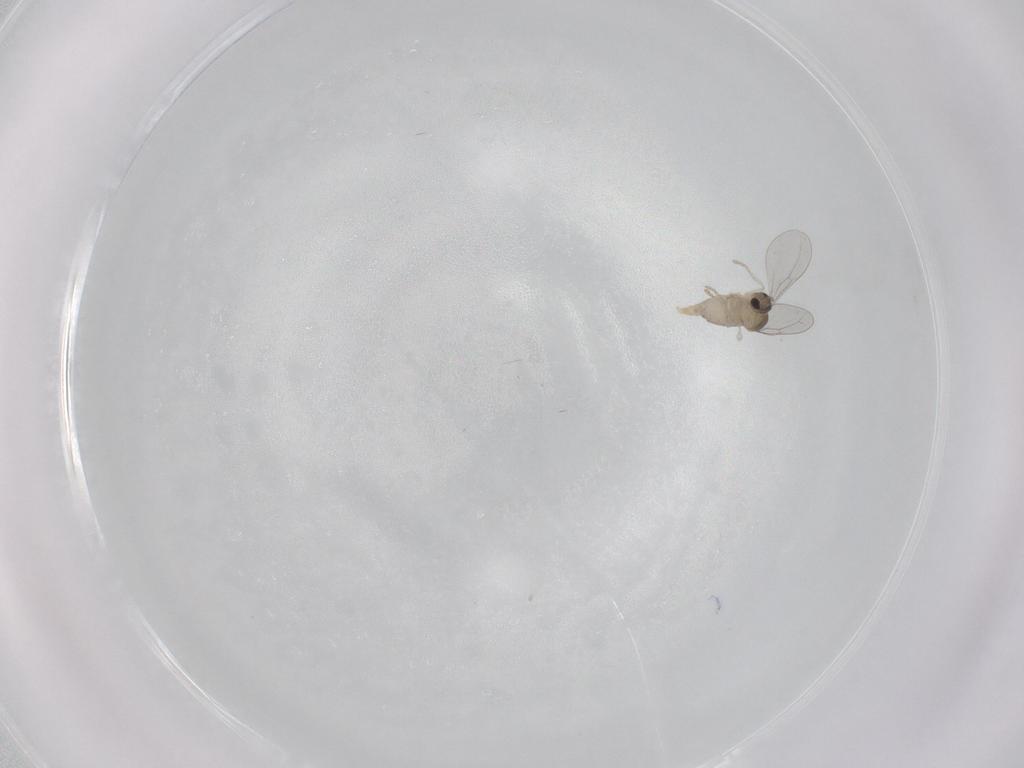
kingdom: Animalia
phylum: Arthropoda
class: Insecta
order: Diptera
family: Cecidomyiidae
